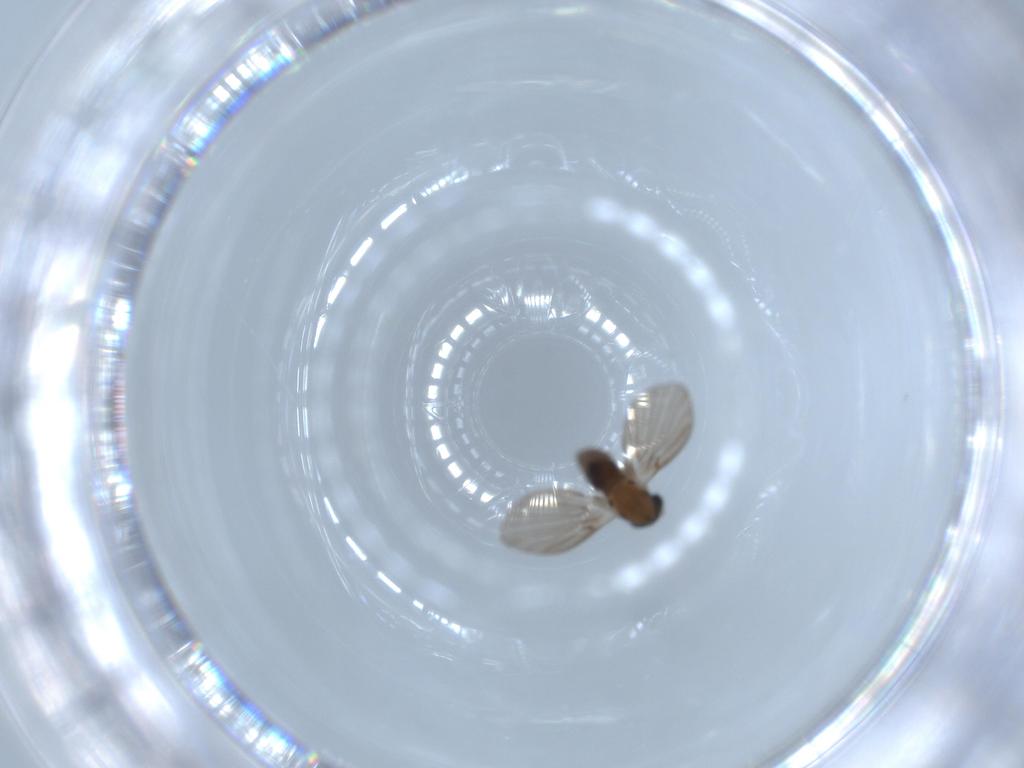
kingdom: Animalia
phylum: Arthropoda
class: Insecta
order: Diptera
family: Psychodidae
